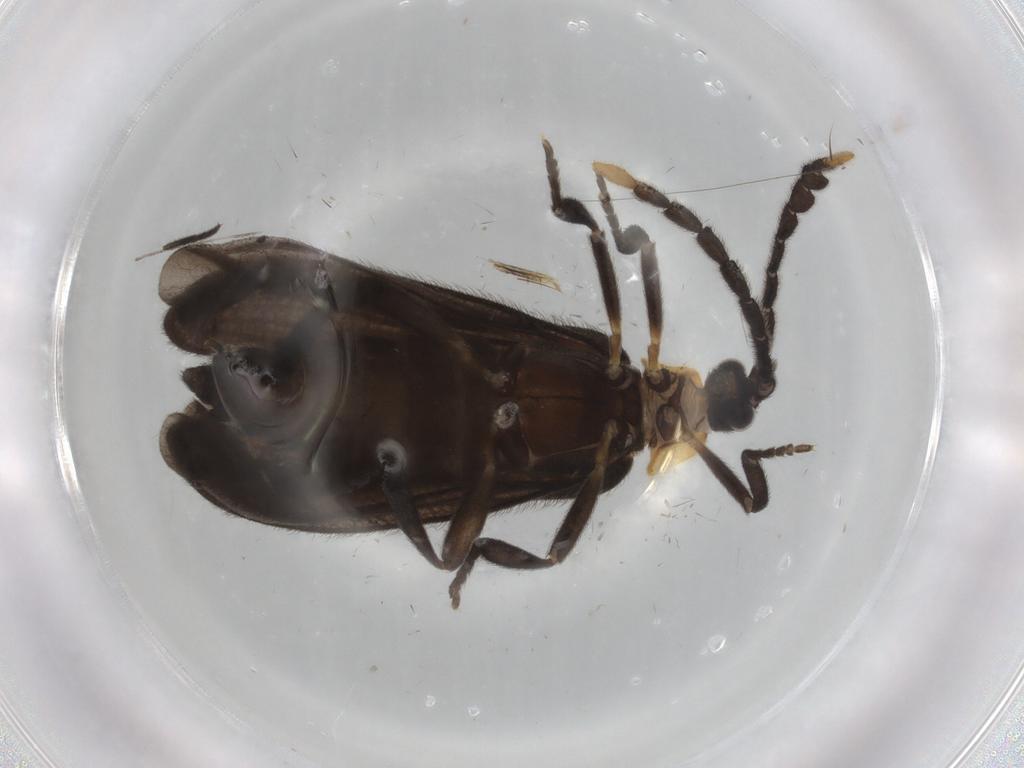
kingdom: Animalia
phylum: Arthropoda
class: Insecta
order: Coleoptera
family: Lycidae
